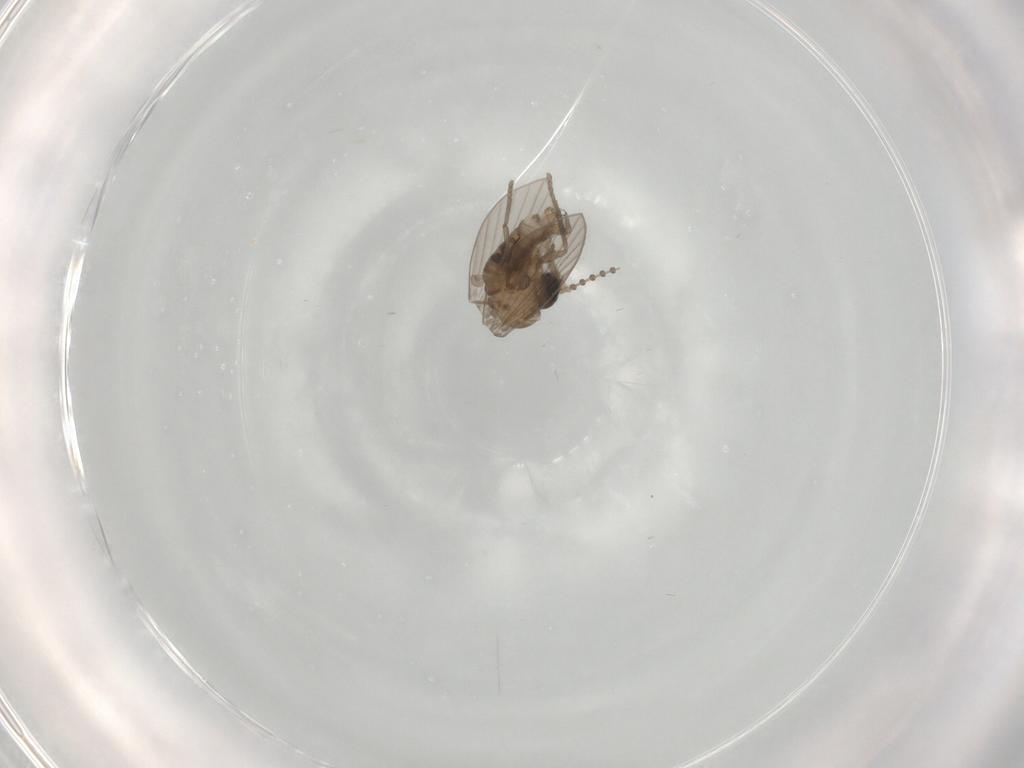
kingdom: Animalia
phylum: Arthropoda
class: Insecta
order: Diptera
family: Psychodidae
